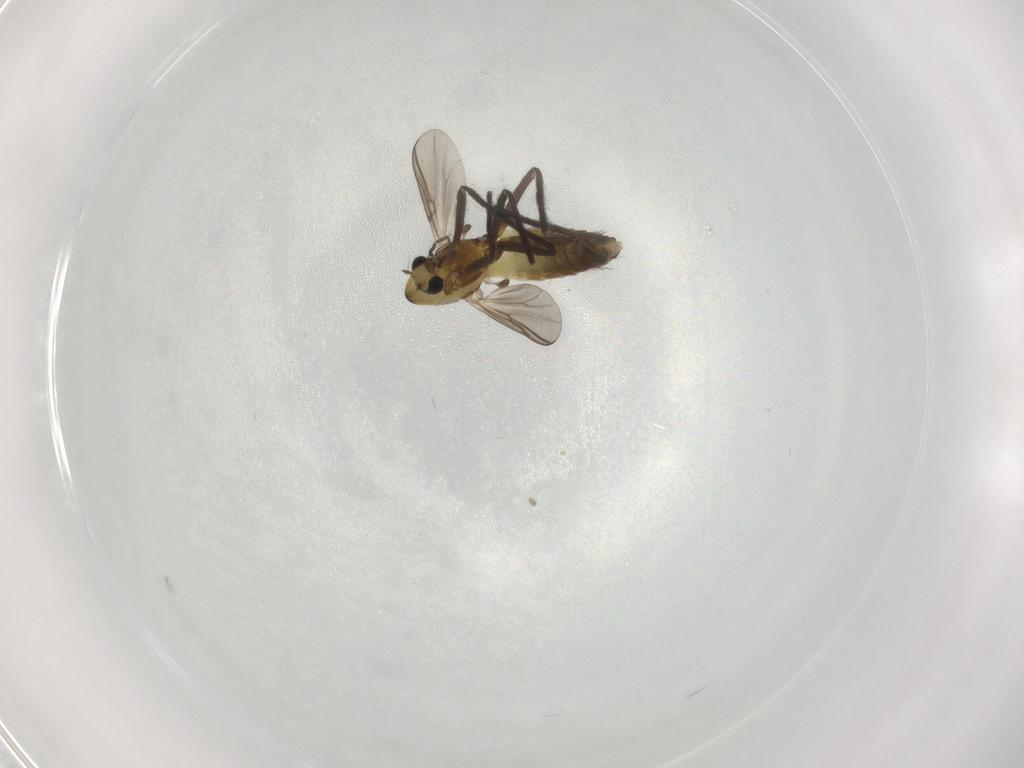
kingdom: Animalia
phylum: Arthropoda
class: Insecta
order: Diptera
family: Chironomidae
